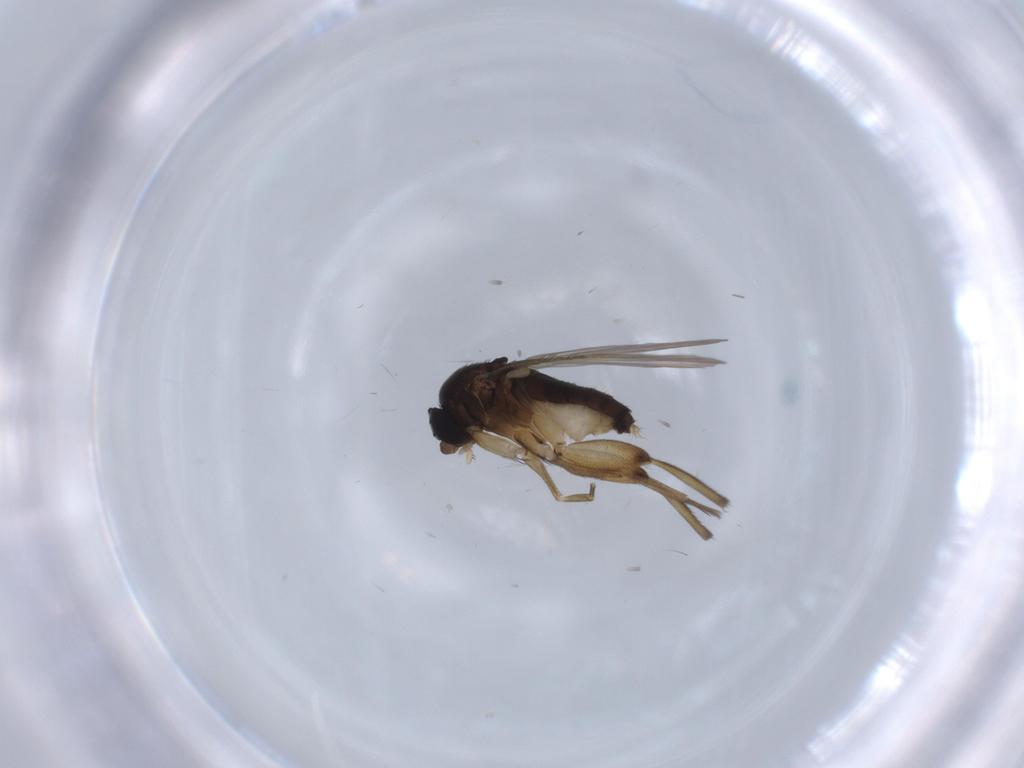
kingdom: Animalia
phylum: Arthropoda
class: Insecta
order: Diptera
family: Phoridae
